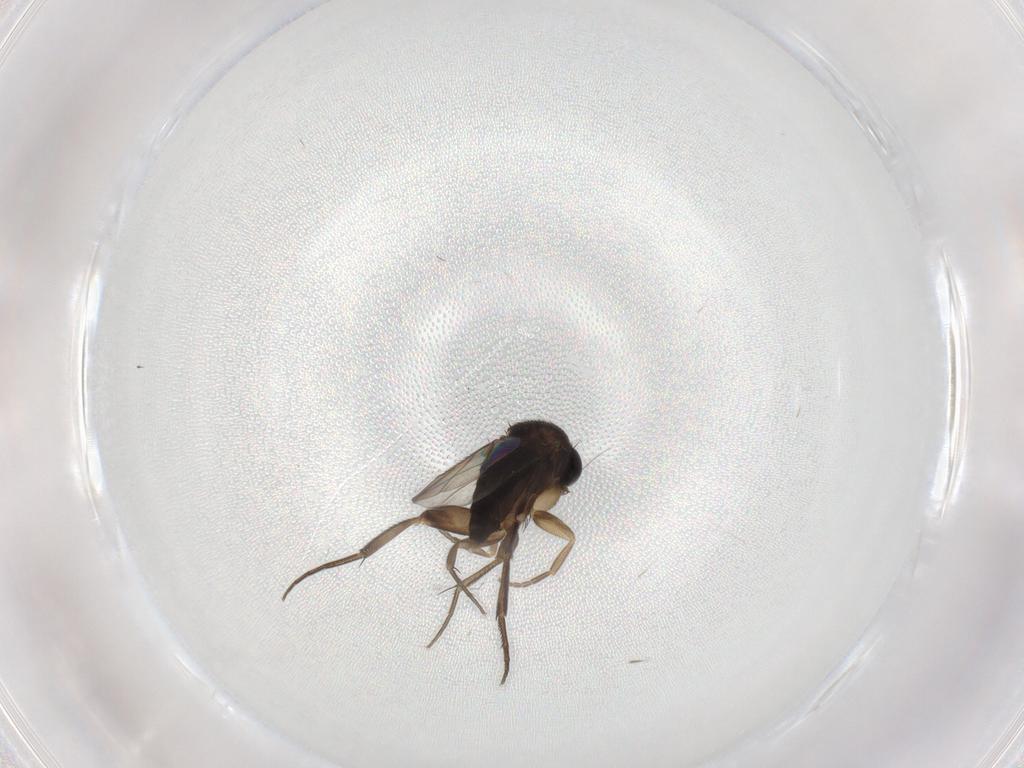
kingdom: Animalia
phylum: Arthropoda
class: Insecta
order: Diptera
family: Phoridae
